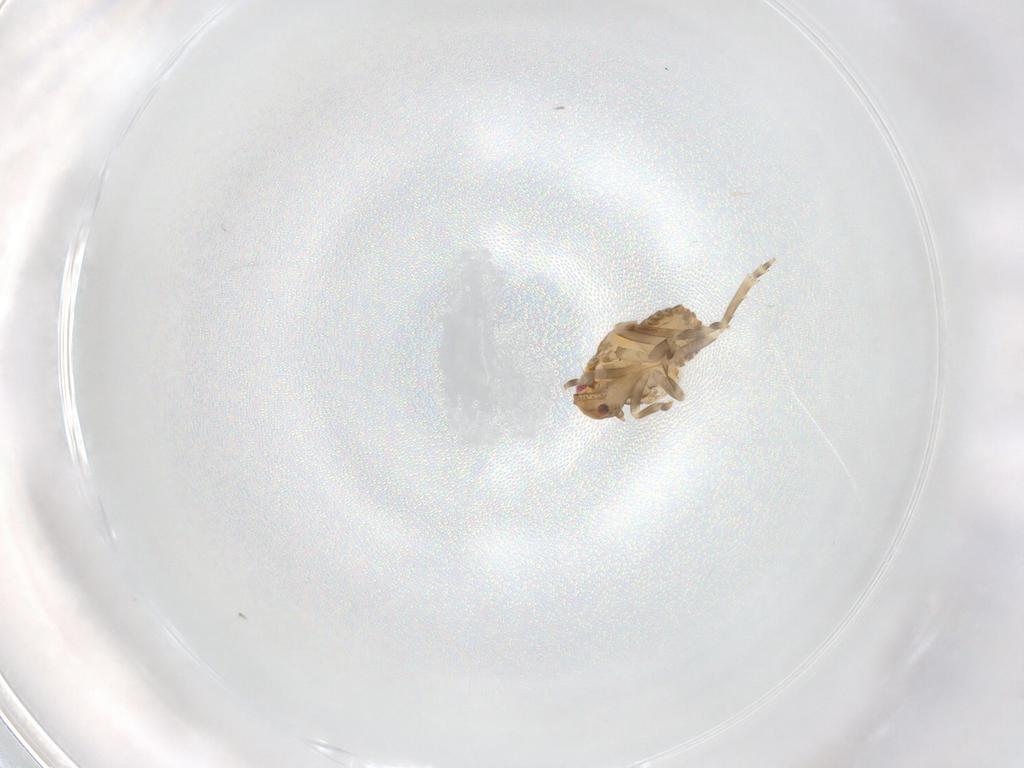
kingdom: Animalia
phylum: Arthropoda
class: Insecta
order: Hemiptera
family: Flatidae
